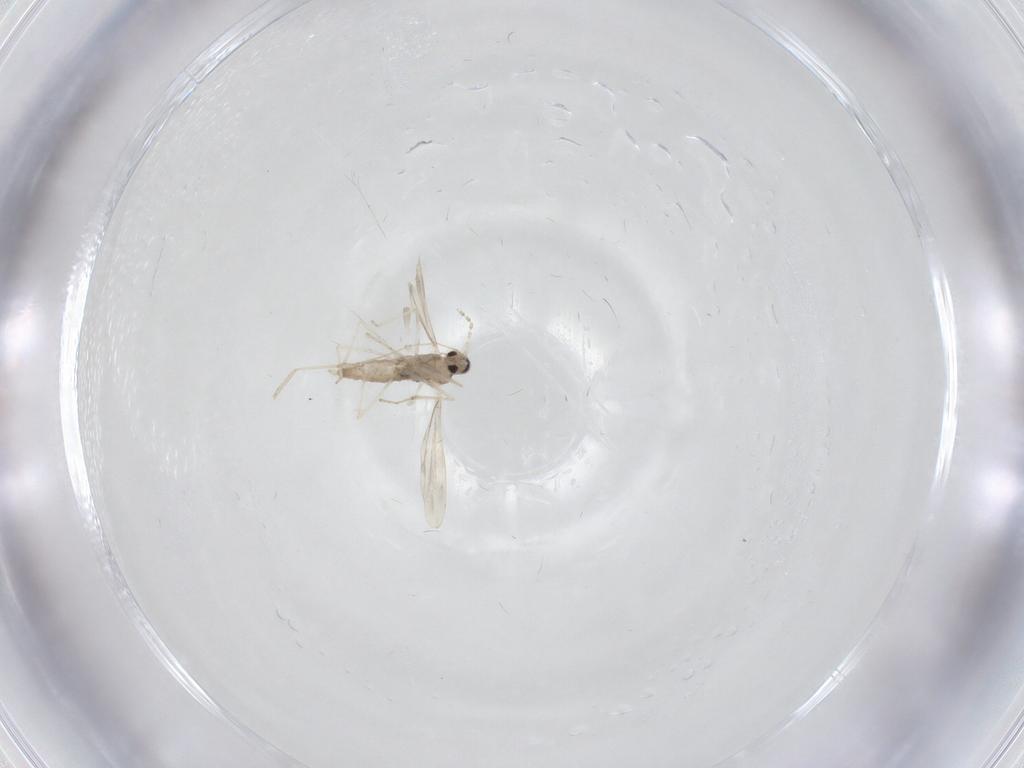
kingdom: Animalia
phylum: Arthropoda
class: Insecta
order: Diptera
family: Cecidomyiidae
